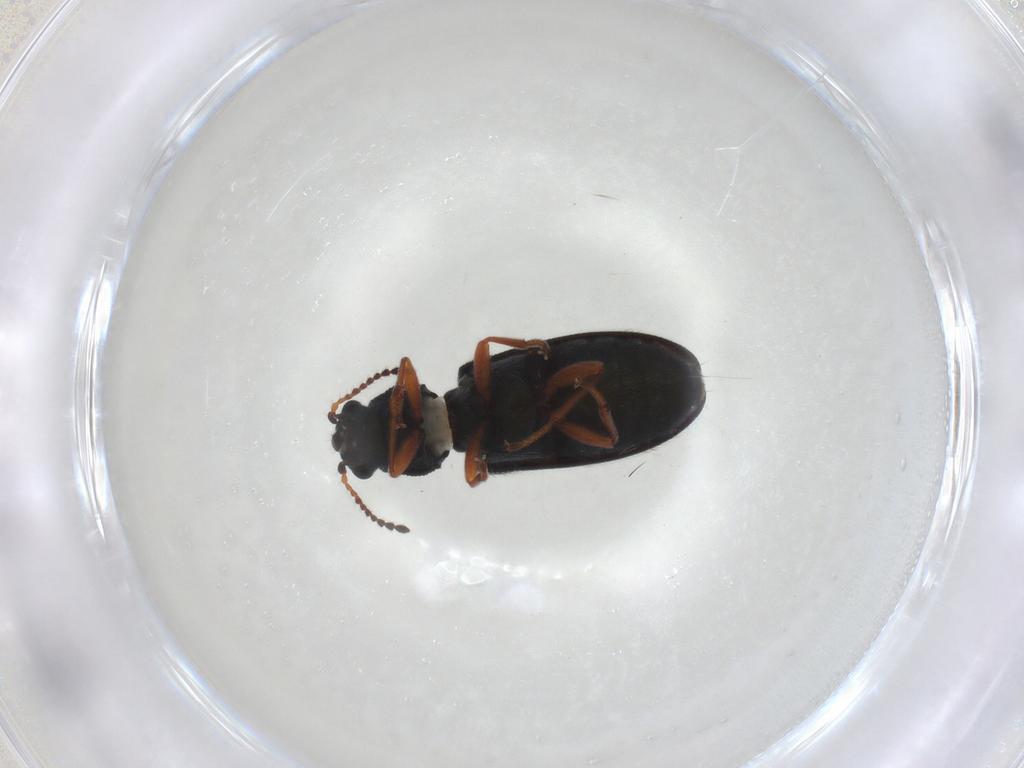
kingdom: Animalia
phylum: Arthropoda
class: Insecta
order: Coleoptera
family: Melyridae
